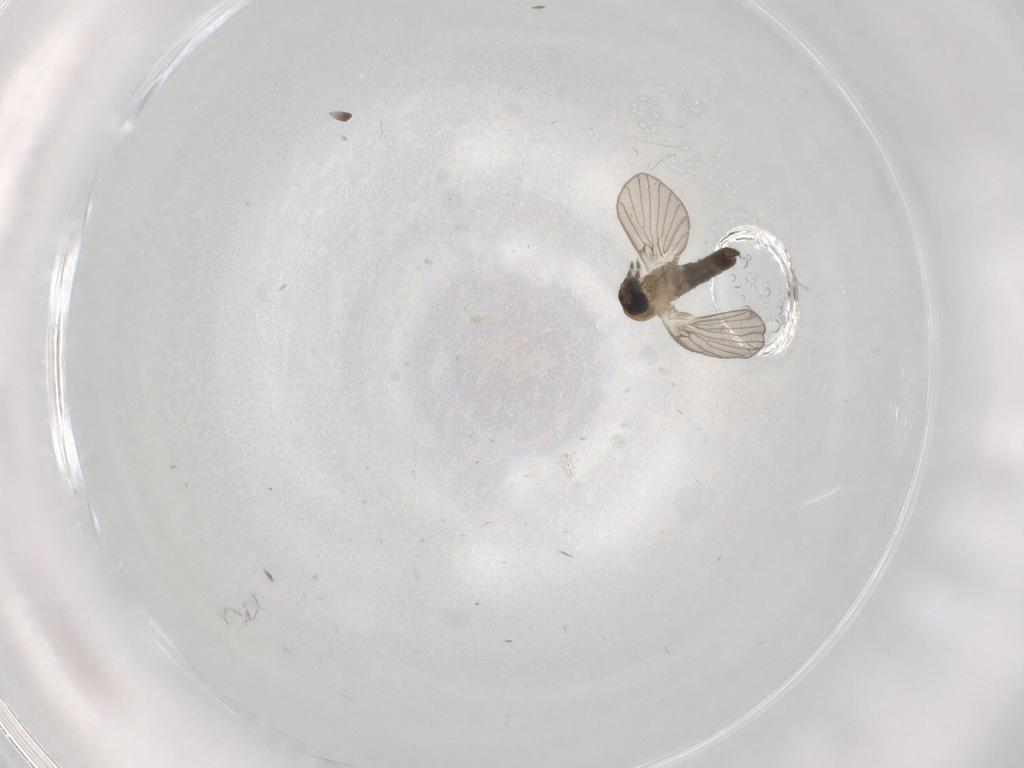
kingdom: Animalia
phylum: Arthropoda
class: Insecta
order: Diptera
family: Psychodidae
